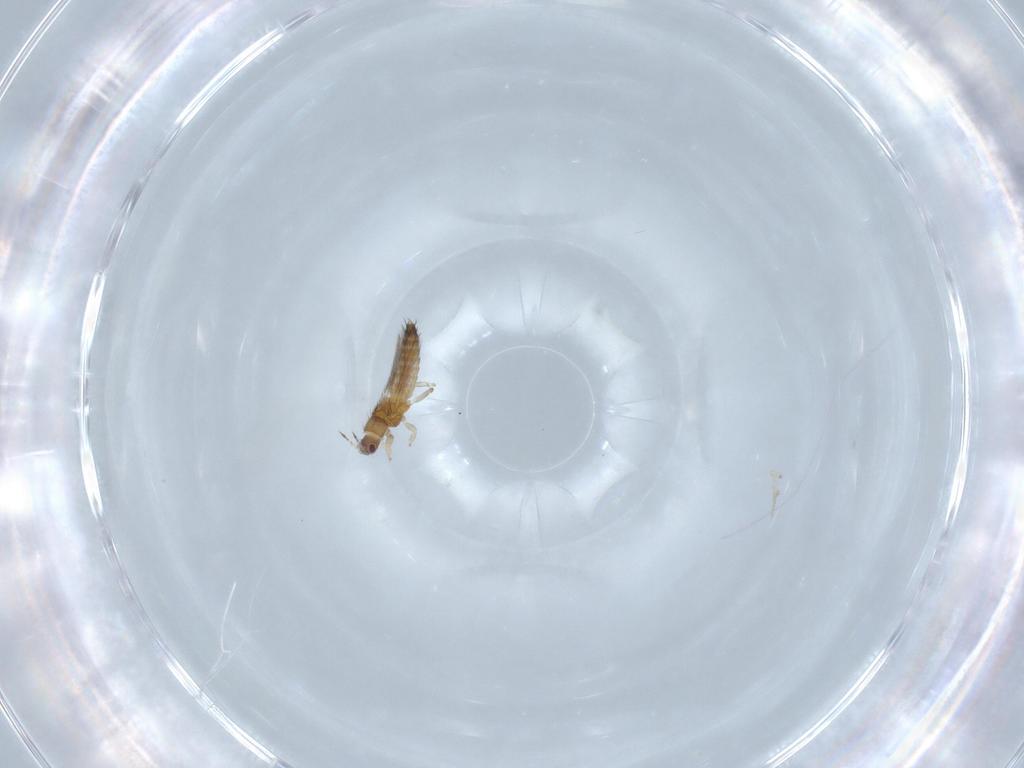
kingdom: Animalia
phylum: Arthropoda
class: Insecta
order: Thysanoptera
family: Thripidae
